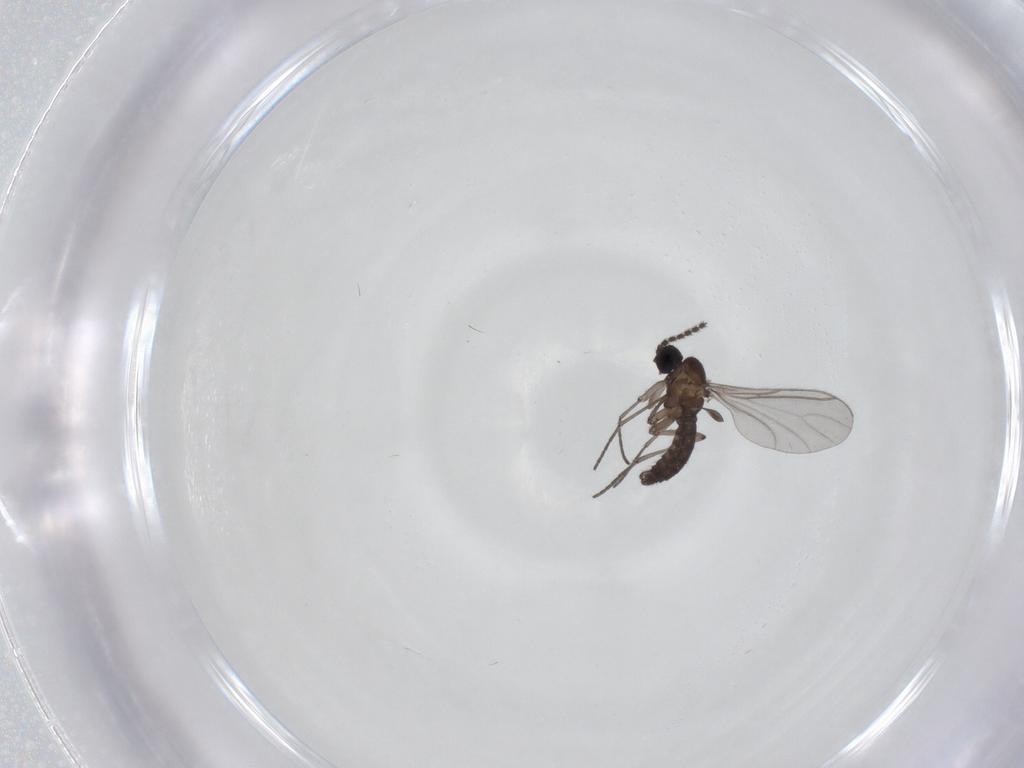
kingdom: Animalia
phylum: Arthropoda
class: Insecta
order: Diptera
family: Sciaridae
